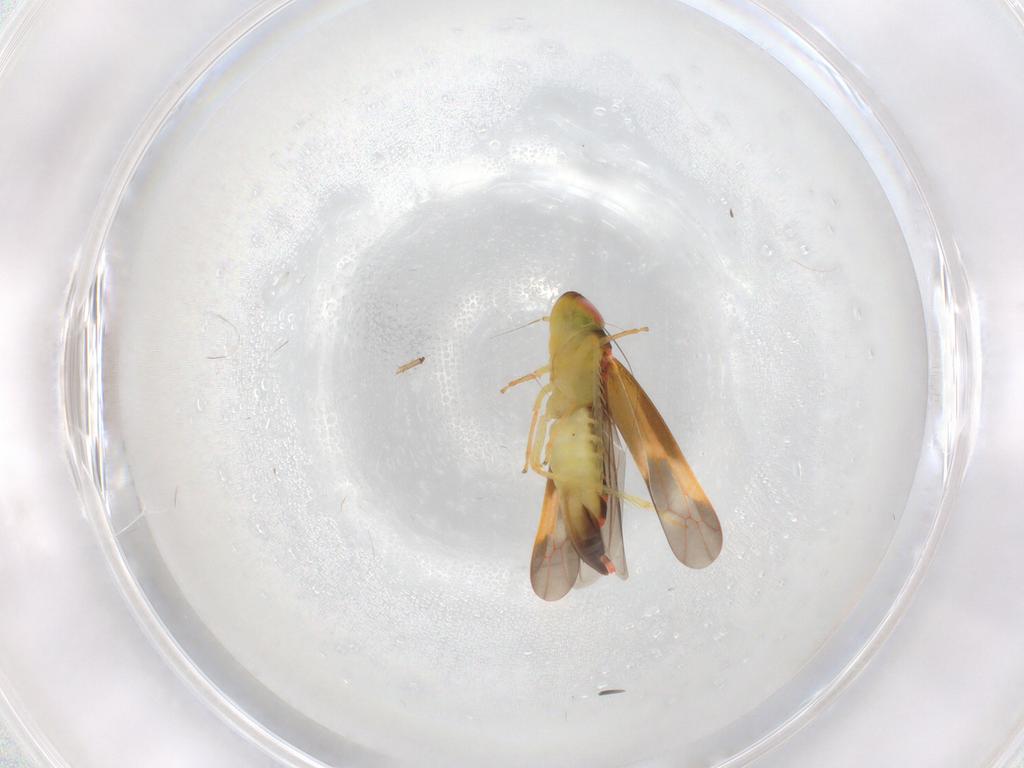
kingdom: Animalia
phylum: Arthropoda
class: Insecta
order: Hemiptera
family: Cicadellidae
